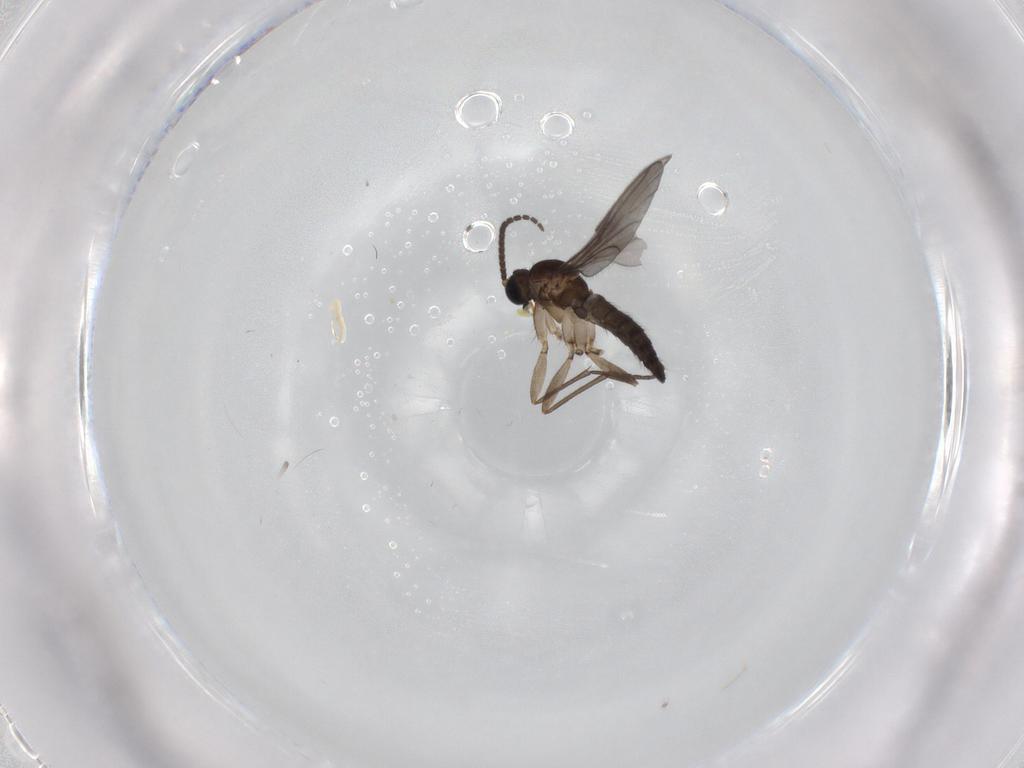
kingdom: Animalia
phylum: Arthropoda
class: Insecta
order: Diptera
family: Sciaridae
